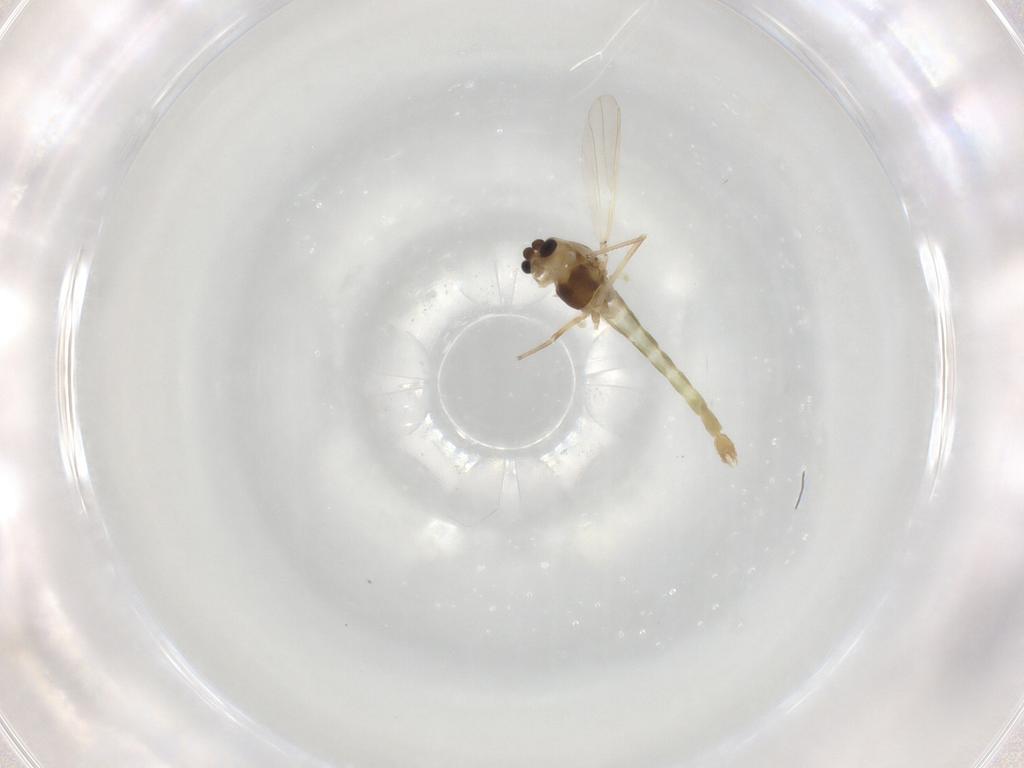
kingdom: Animalia
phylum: Arthropoda
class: Insecta
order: Diptera
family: Chironomidae
